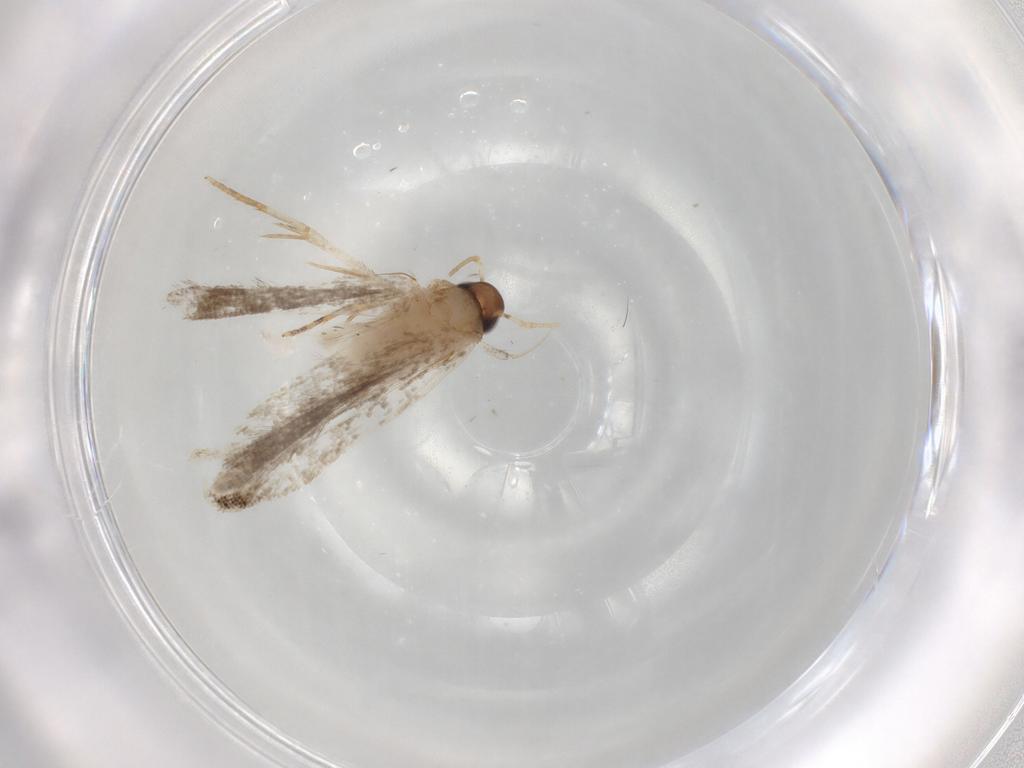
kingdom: Animalia
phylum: Arthropoda
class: Insecta
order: Lepidoptera
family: Gelechiidae
